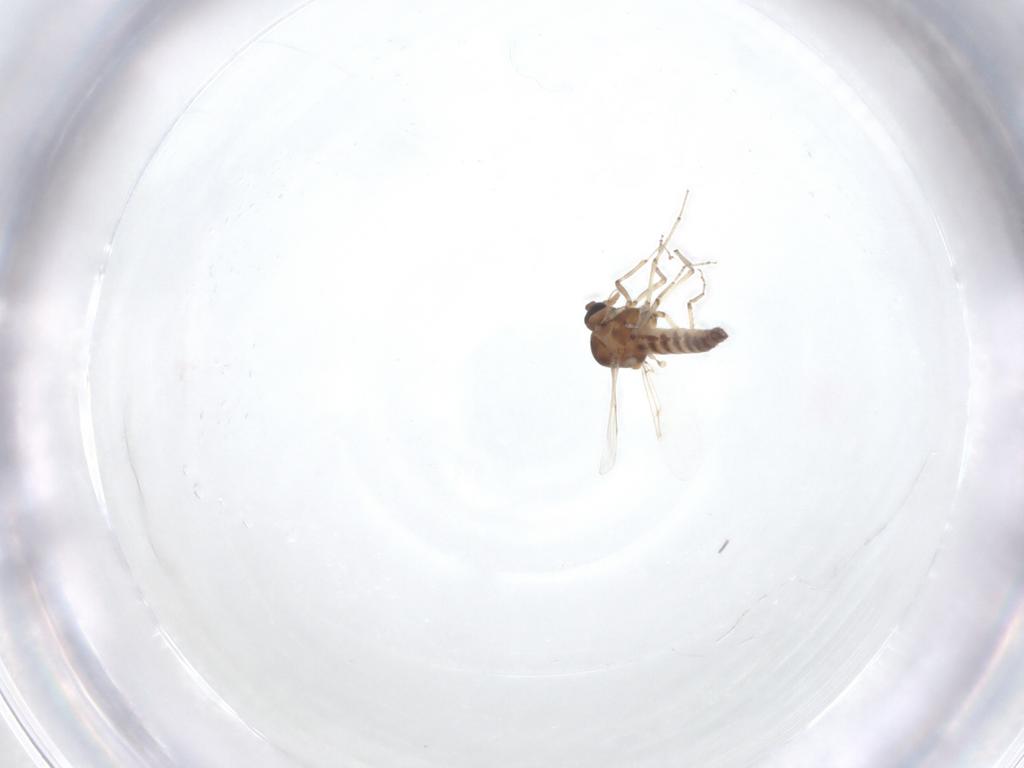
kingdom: Animalia
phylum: Arthropoda
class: Insecta
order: Diptera
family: Ceratopogonidae
